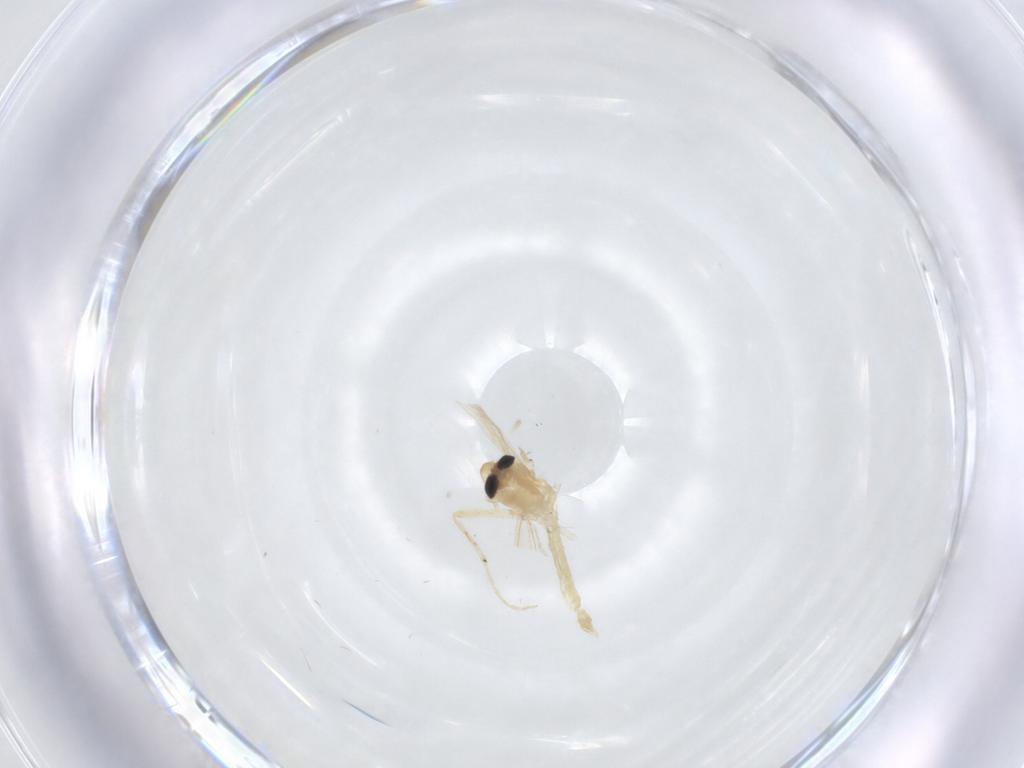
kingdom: Animalia
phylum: Arthropoda
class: Insecta
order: Diptera
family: Chironomidae
